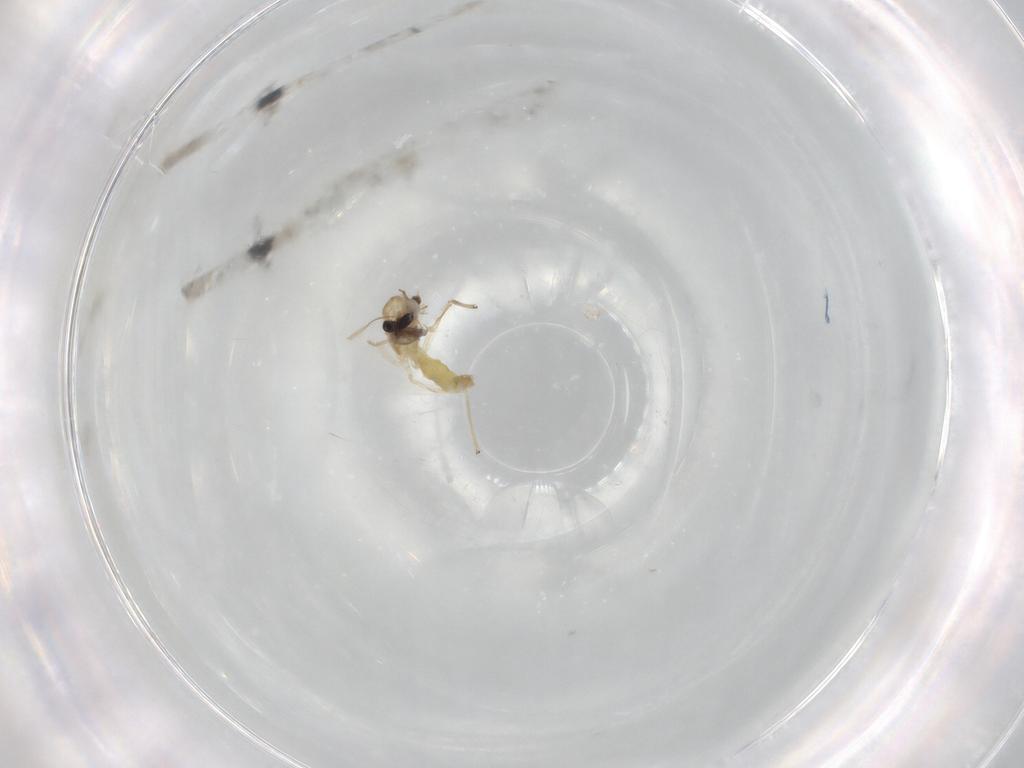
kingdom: Animalia
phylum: Arthropoda
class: Insecta
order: Diptera
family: Chironomidae
